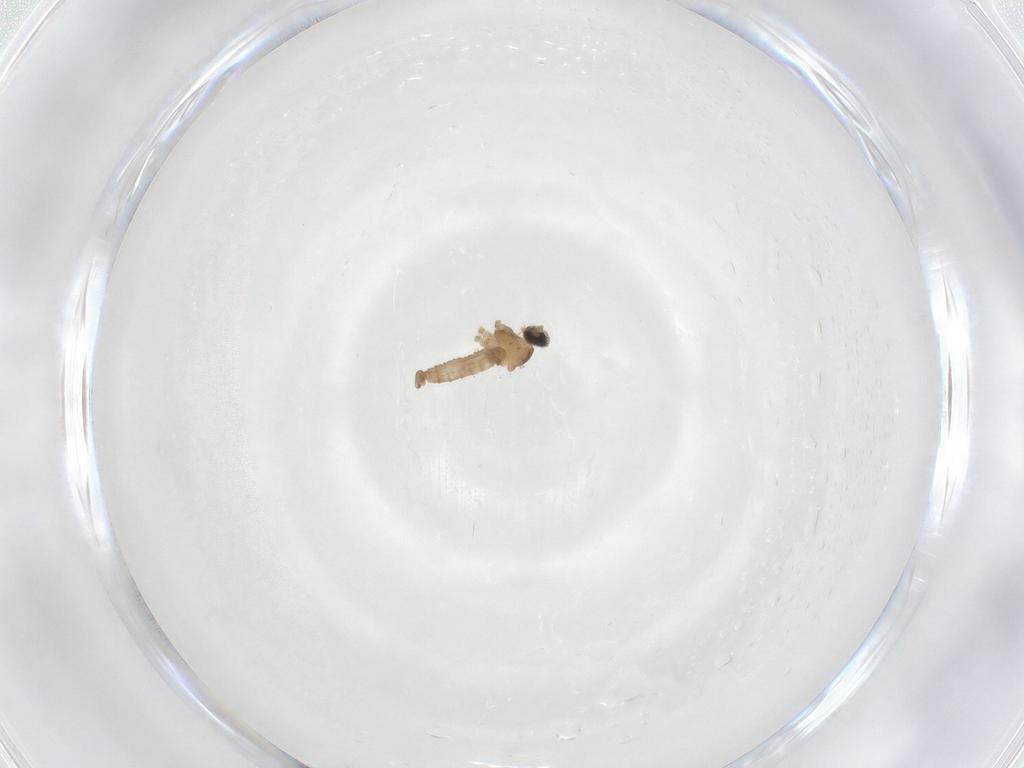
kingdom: Animalia
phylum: Arthropoda
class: Insecta
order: Diptera
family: Cecidomyiidae
